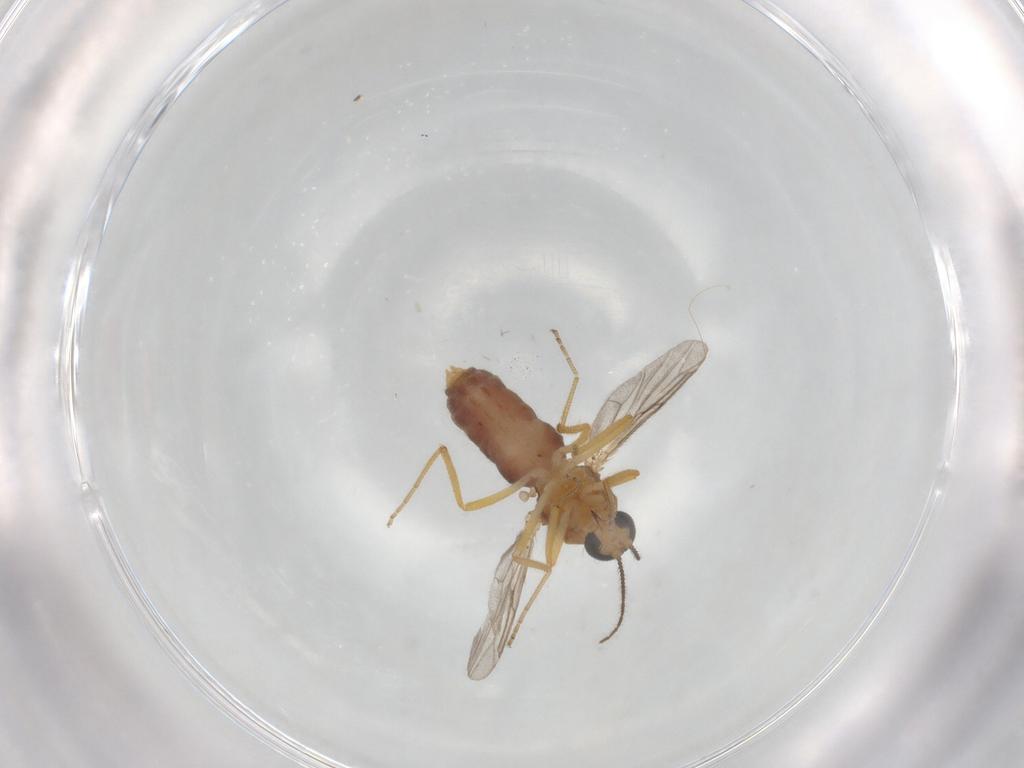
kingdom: Animalia
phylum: Arthropoda
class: Insecta
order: Diptera
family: Ceratopogonidae
